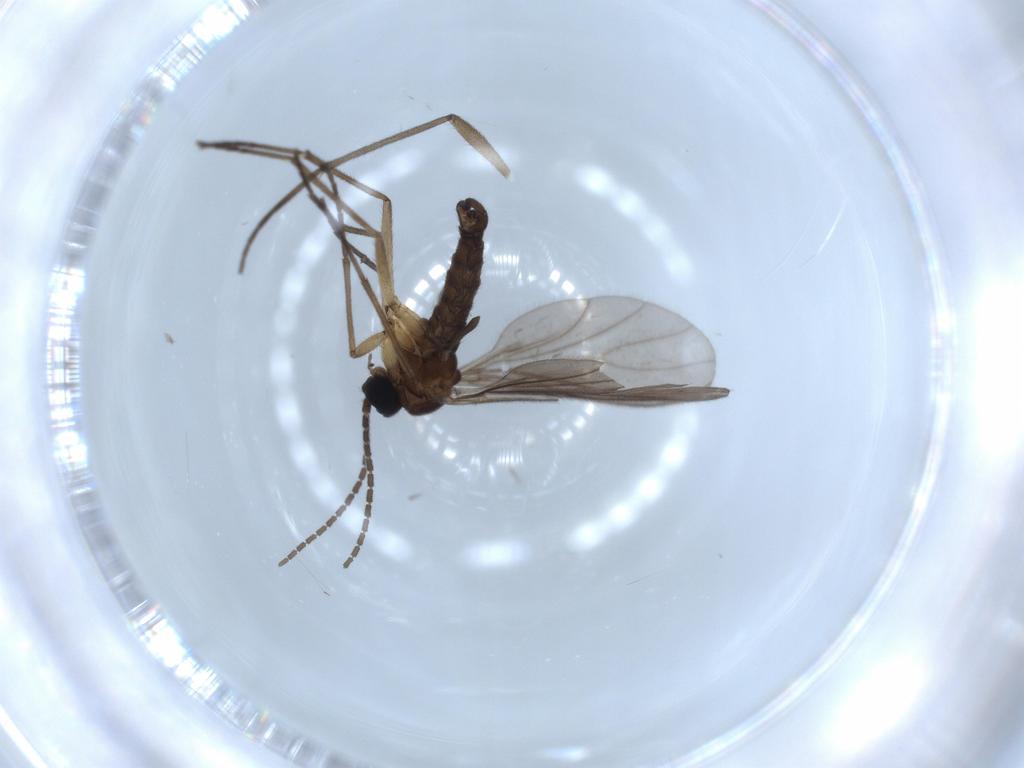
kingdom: Animalia
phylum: Arthropoda
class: Insecta
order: Diptera
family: Sciaridae
